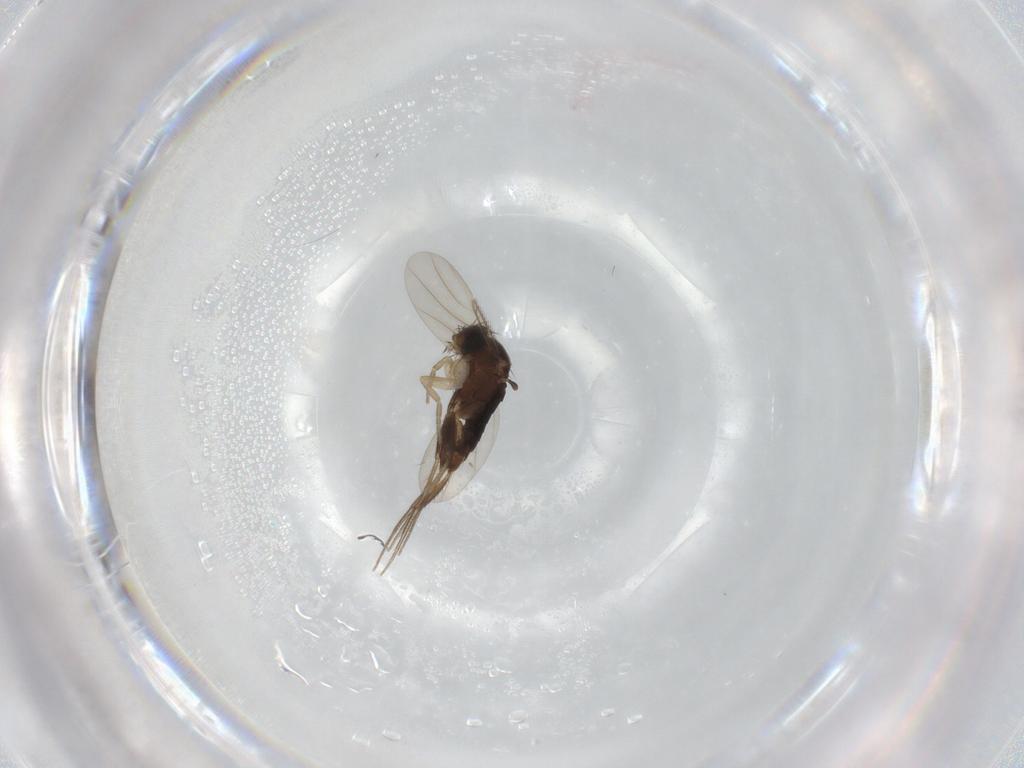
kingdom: Animalia
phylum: Arthropoda
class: Insecta
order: Diptera
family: Phoridae
